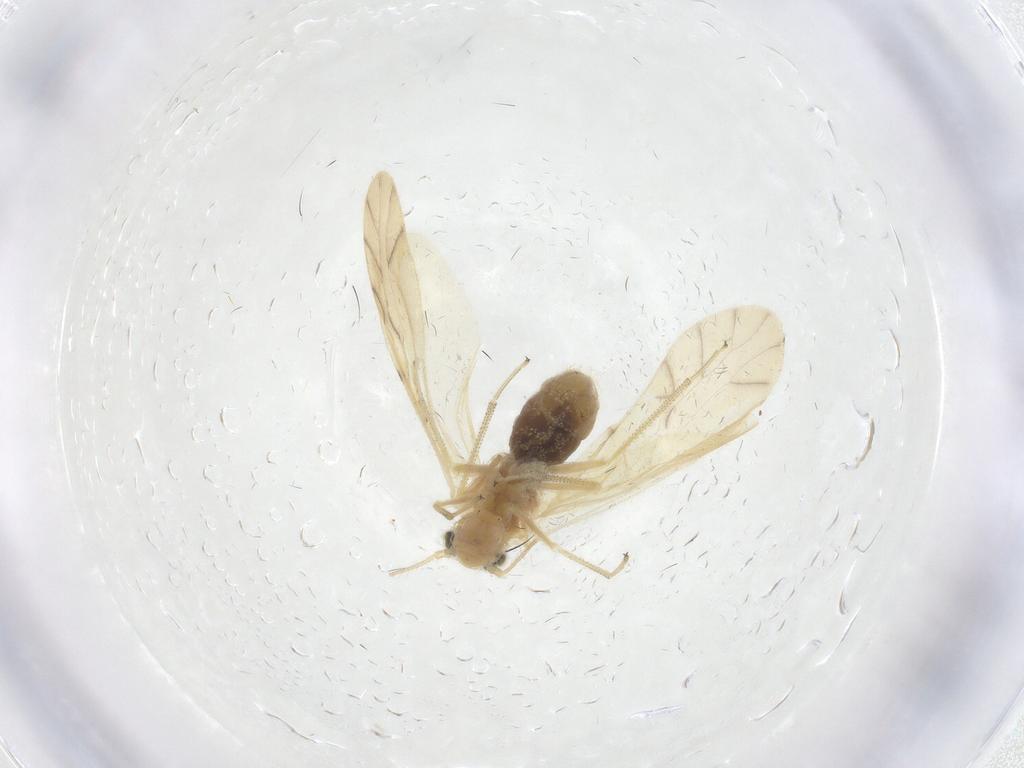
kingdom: Animalia
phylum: Arthropoda
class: Insecta
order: Psocodea
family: Caeciliusidae
